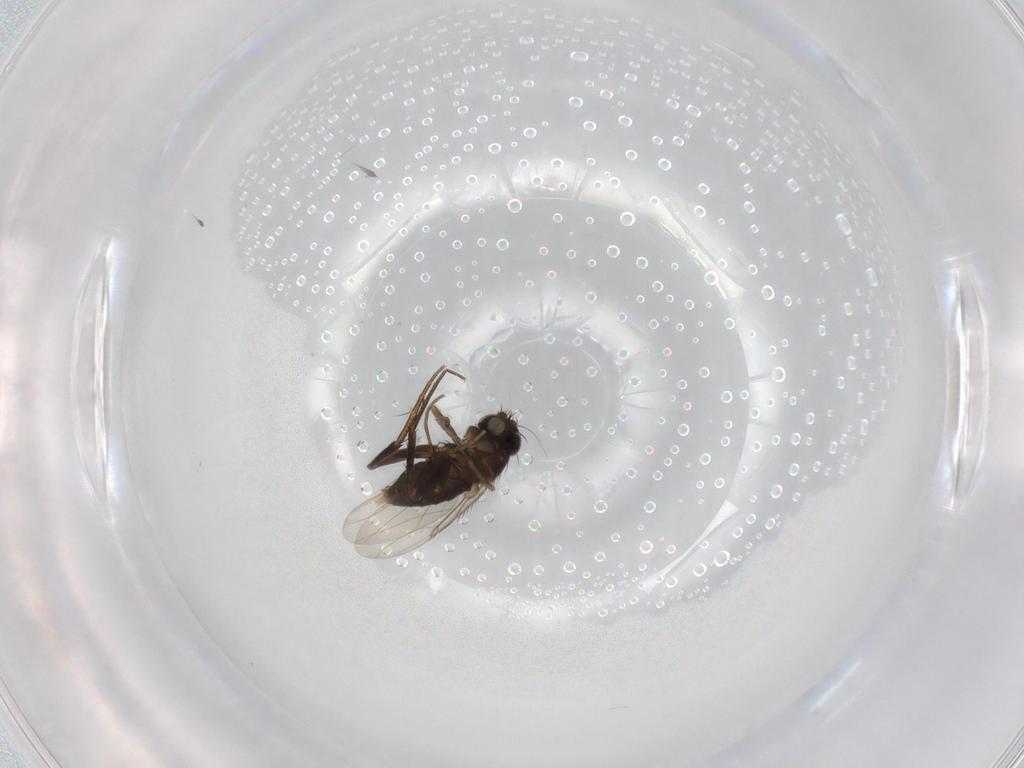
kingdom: Animalia
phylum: Arthropoda
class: Insecta
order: Diptera
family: Phoridae
